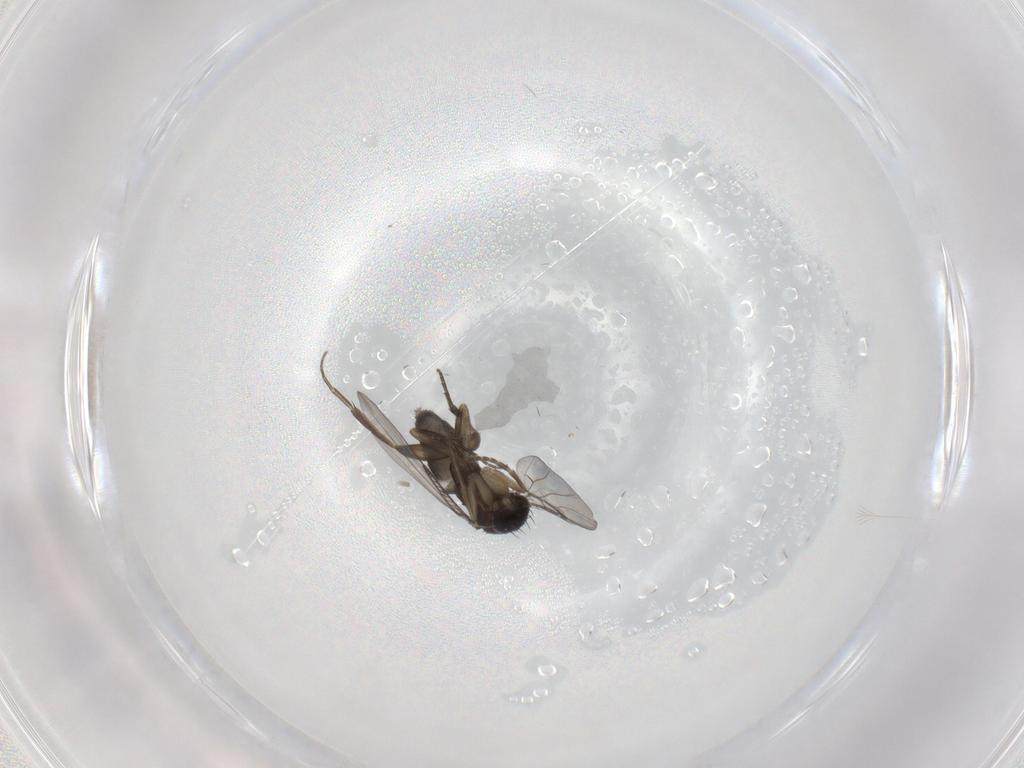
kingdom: Animalia
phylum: Arthropoda
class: Insecta
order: Diptera
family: Phoridae
